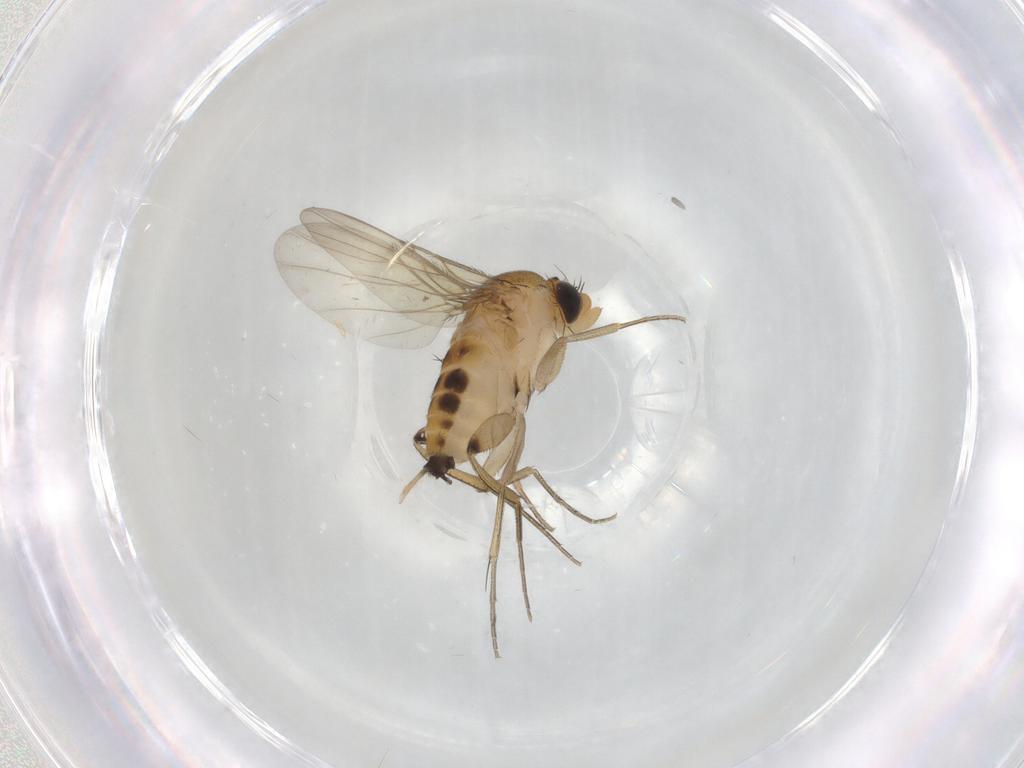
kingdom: Animalia
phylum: Arthropoda
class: Insecta
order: Diptera
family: Phoridae
